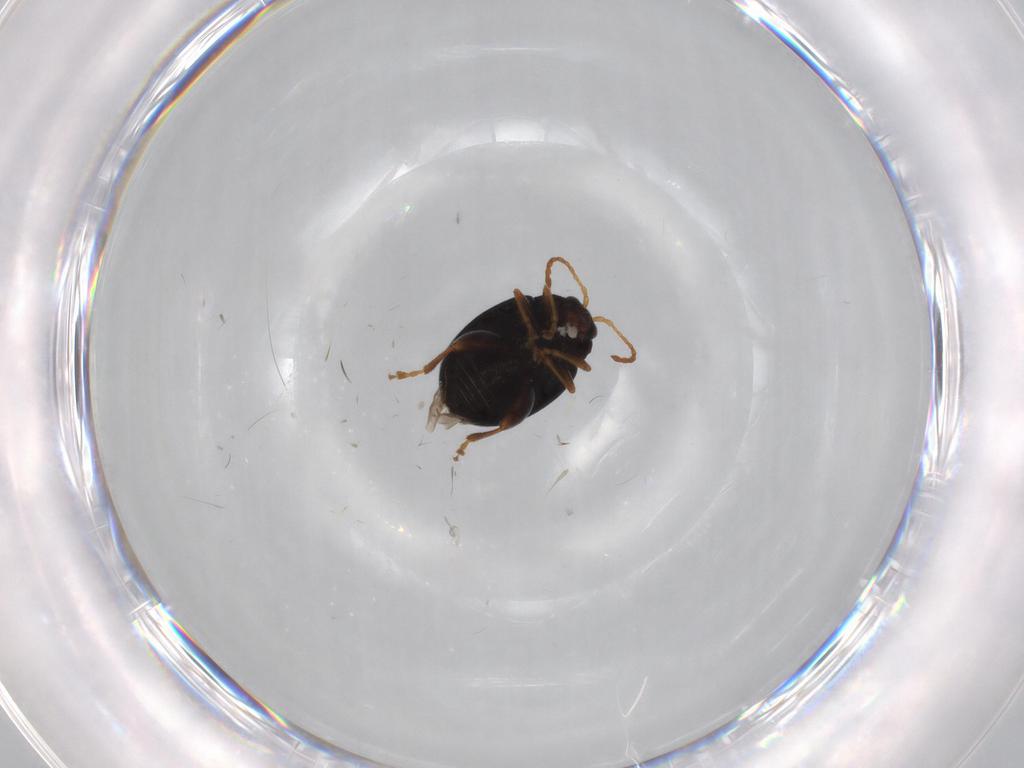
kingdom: Animalia
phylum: Arthropoda
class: Insecta
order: Coleoptera
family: Chrysomelidae
